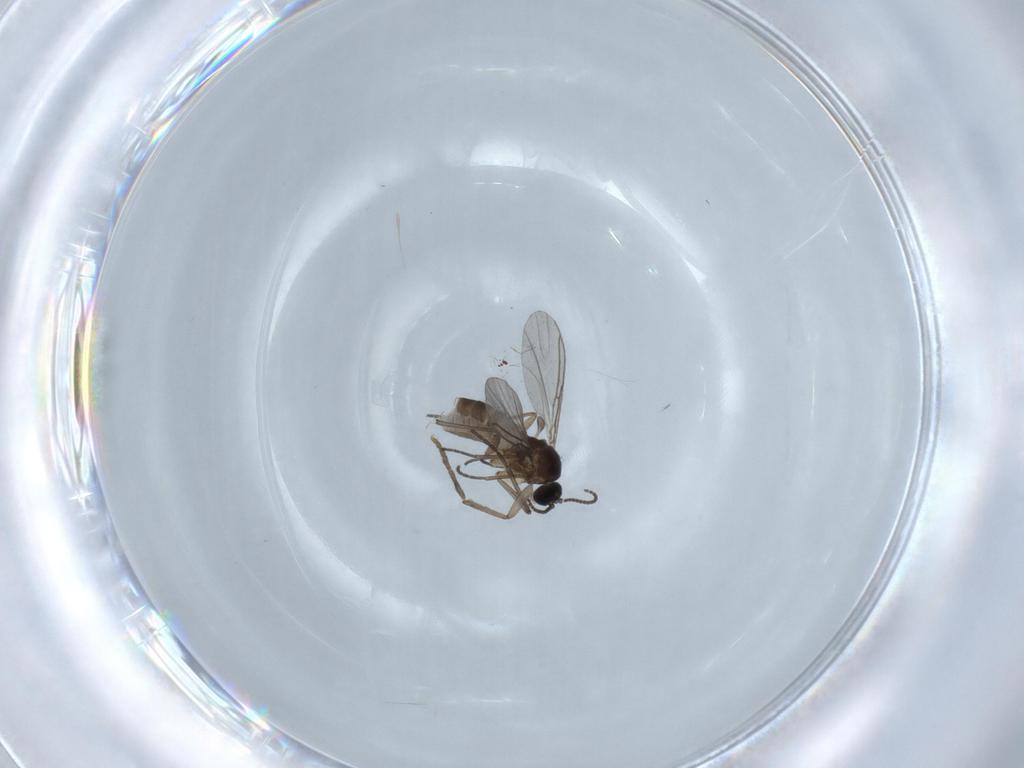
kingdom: Animalia
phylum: Arthropoda
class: Insecta
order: Diptera
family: Sciaridae
